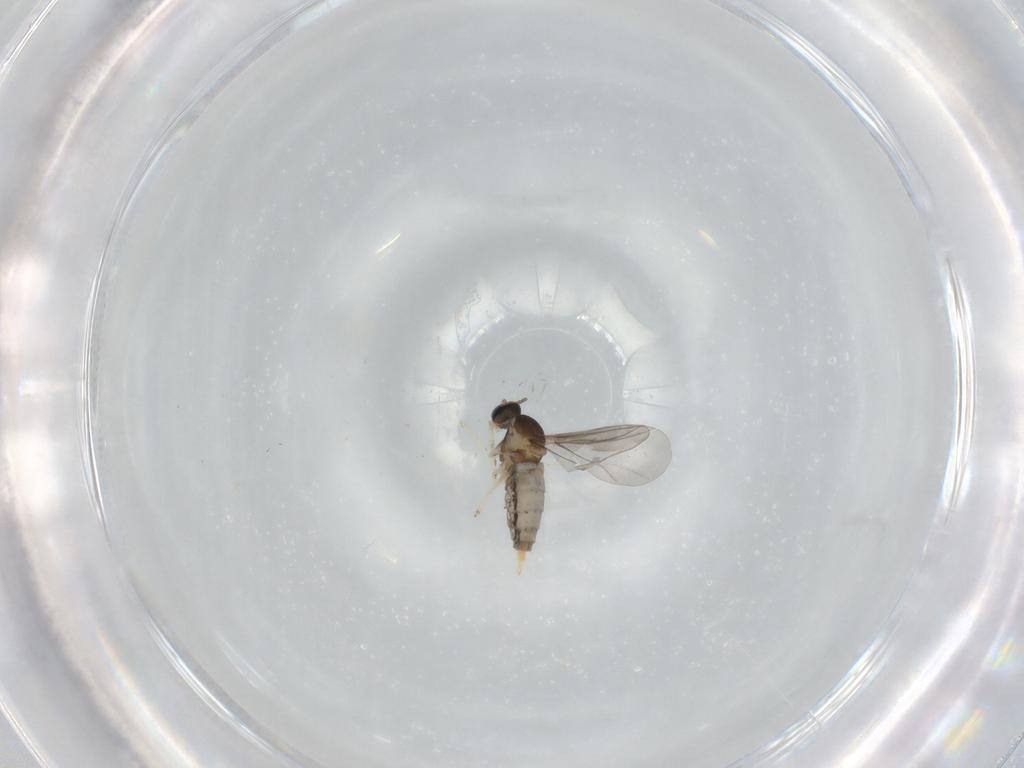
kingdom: Animalia
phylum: Arthropoda
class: Insecta
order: Diptera
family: Cecidomyiidae
